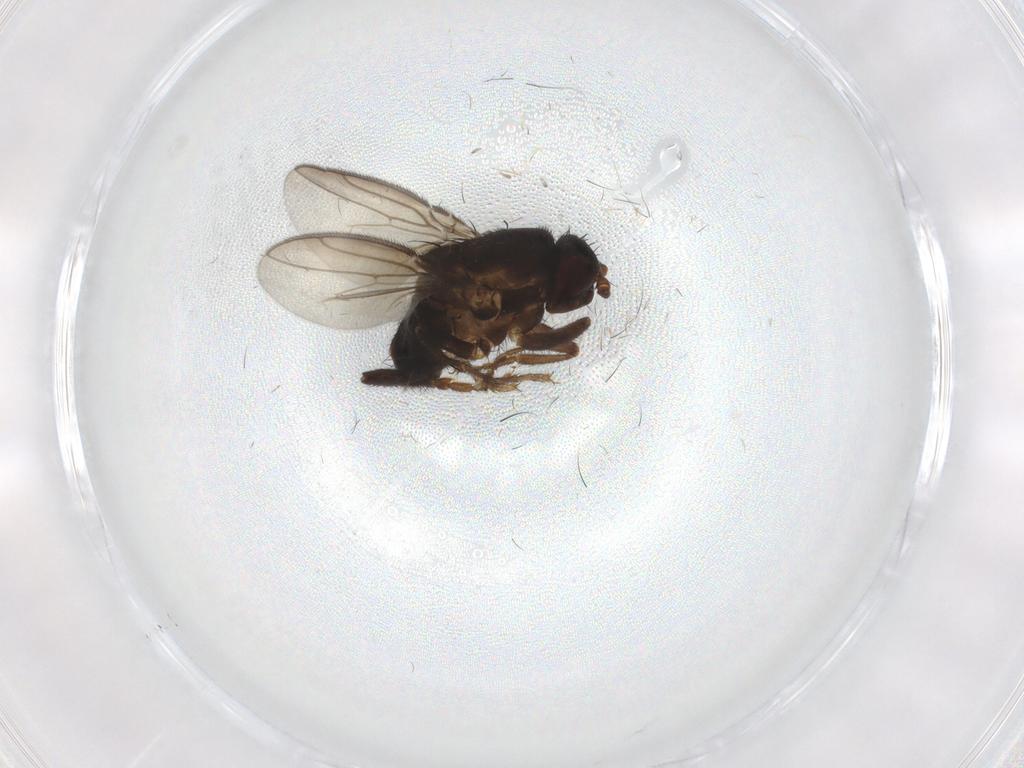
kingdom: Animalia
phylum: Arthropoda
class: Insecta
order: Diptera
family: Sphaeroceridae
